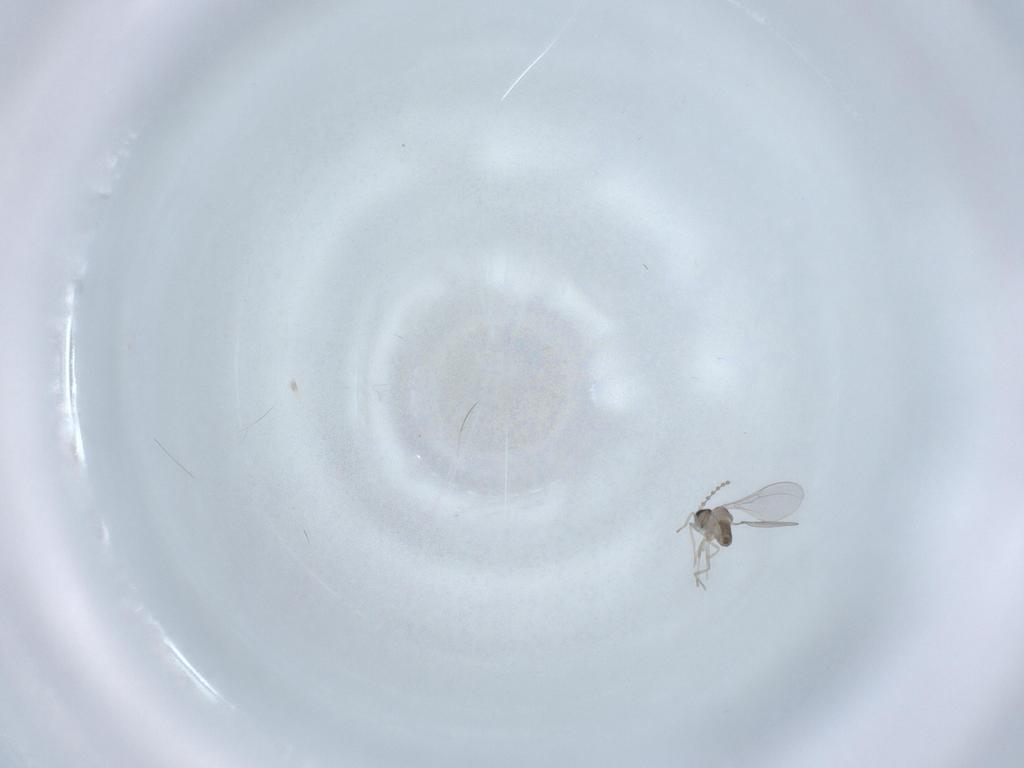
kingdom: Animalia
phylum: Arthropoda
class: Insecta
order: Diptera
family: Cecidomyiidae
